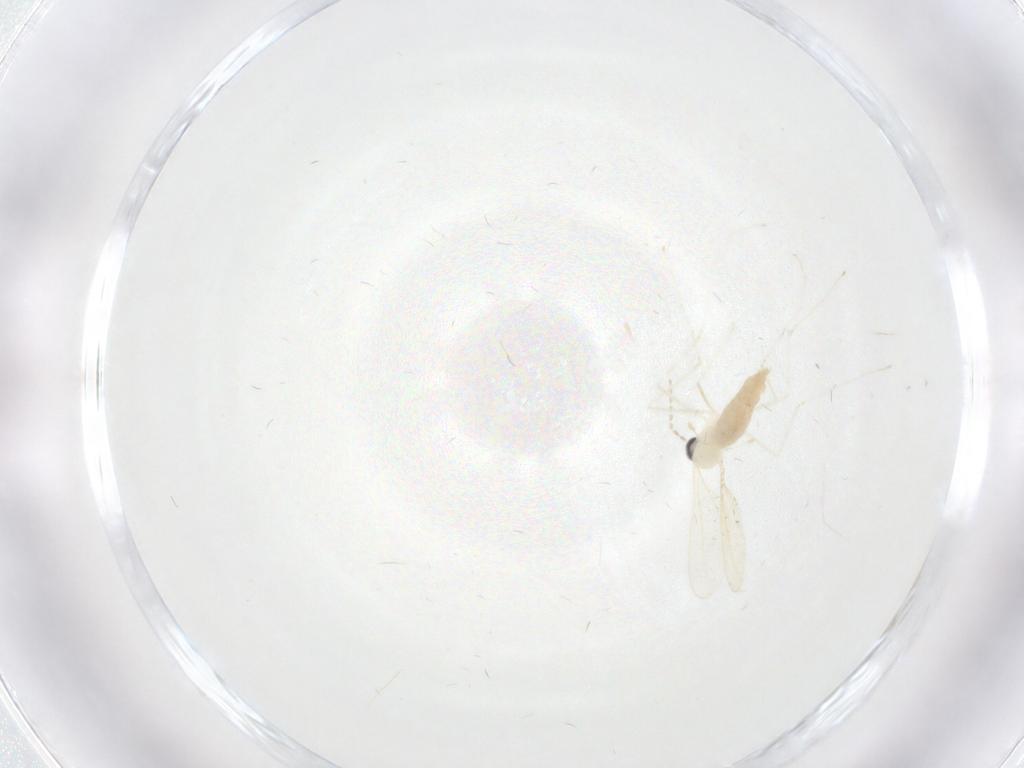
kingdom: Animalia
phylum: Arthropoda
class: Insecta
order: Diptera
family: Cecidomyiidae
